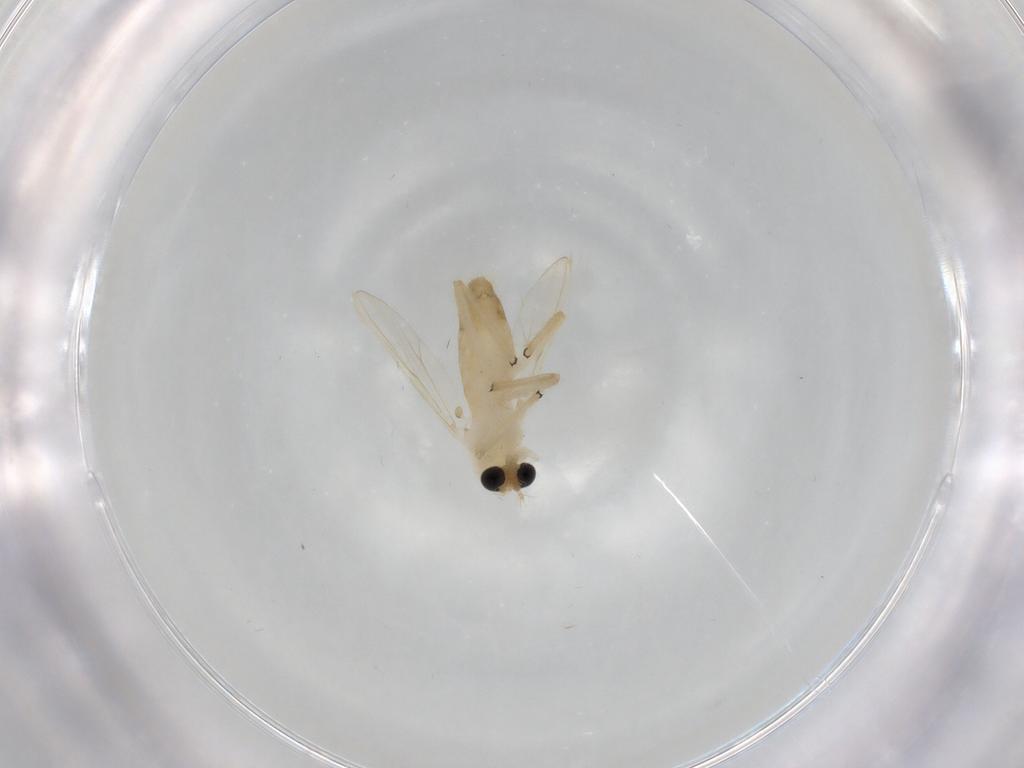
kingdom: Animalia
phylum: Arthropoda
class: Insecta
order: Diptera
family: Chironomidae
